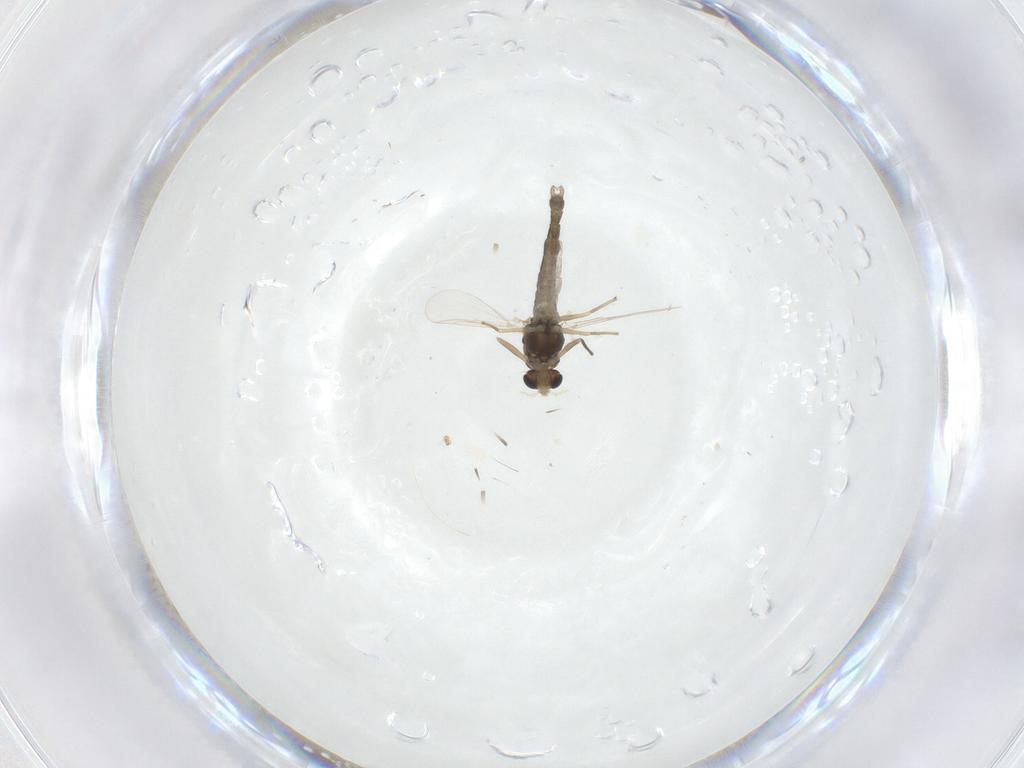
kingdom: Animalia
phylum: Arthropoda
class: Insecta
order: Diptera
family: Chironomidae
